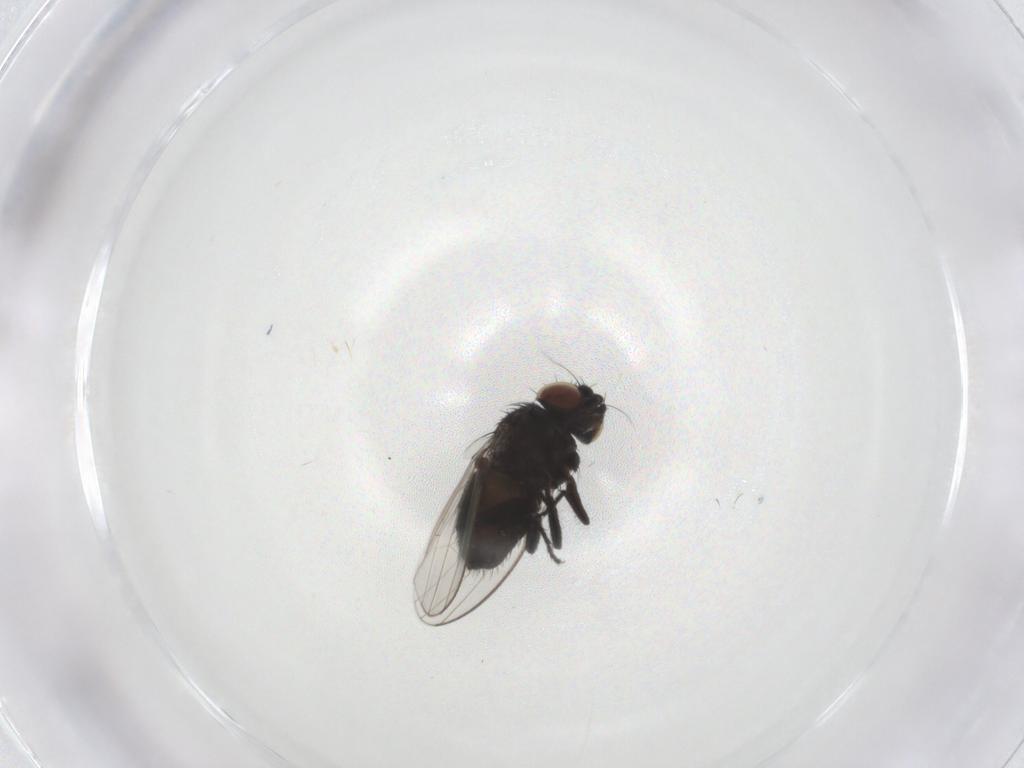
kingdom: Animalia
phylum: Arthropoda
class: Insecta
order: Diptera
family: Milichiidae
